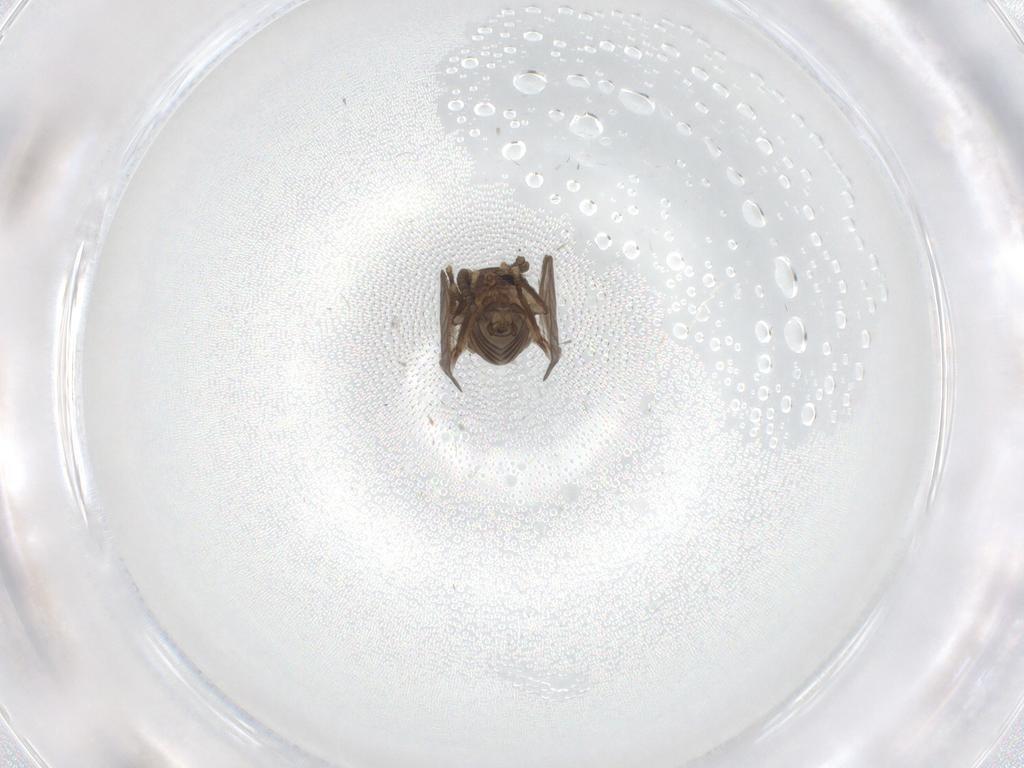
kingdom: Animalia
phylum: Arthropoda
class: Insecta
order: Diptera
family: Psychodidae
